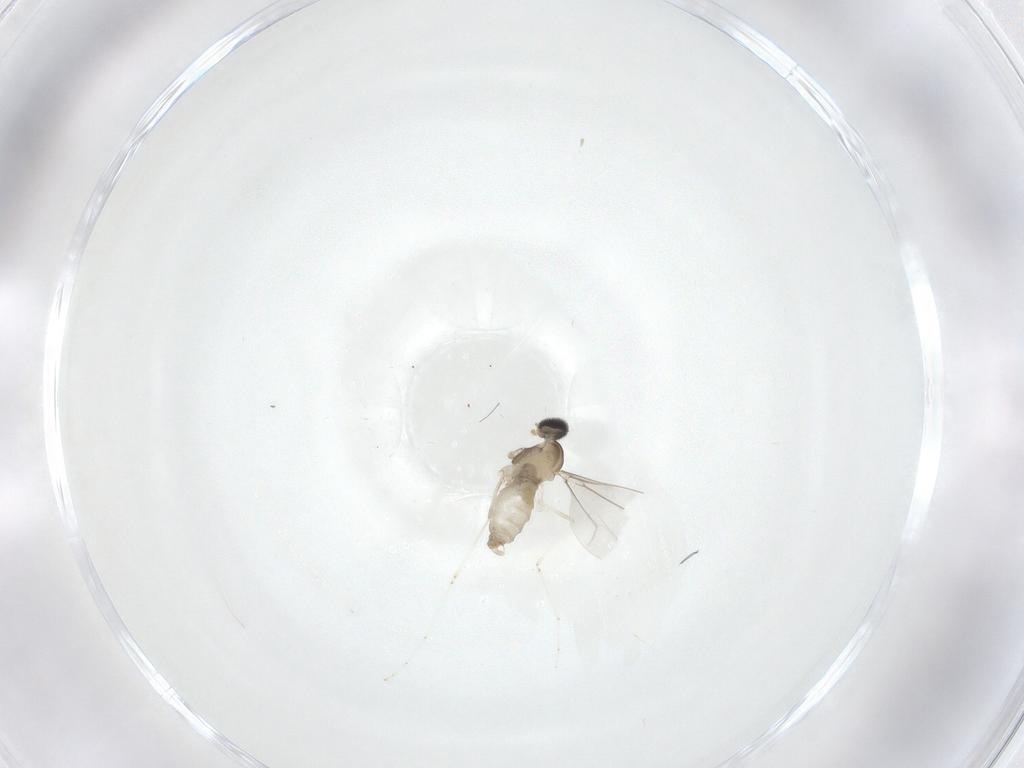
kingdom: Animalia
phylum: Arthropoda
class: Insecta
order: Diptera
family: Cecidomyiidae
